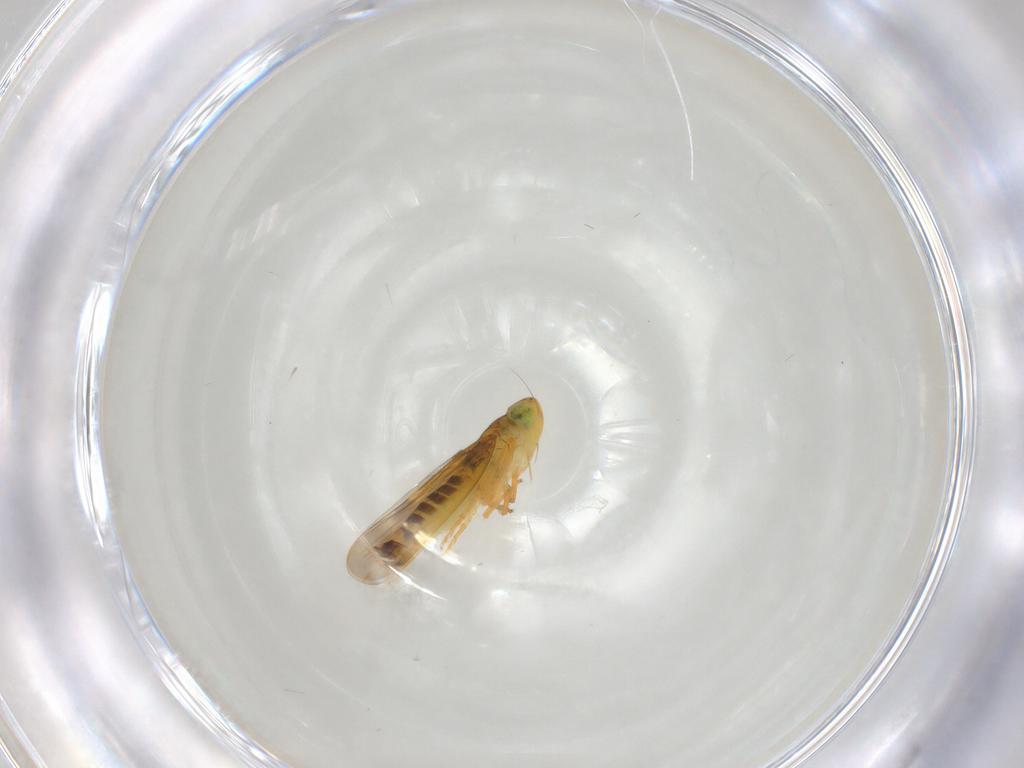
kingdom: Animalia
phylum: Arthropoda
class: Insecta
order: Hemiptera
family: Cicadellidae
